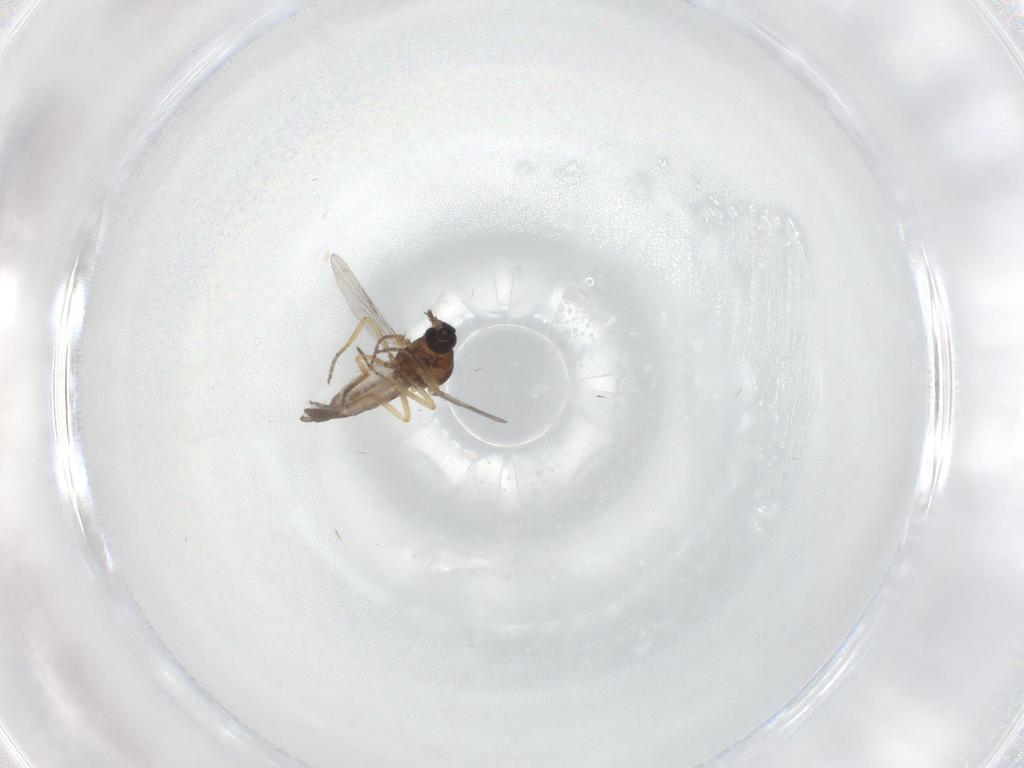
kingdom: Animalia
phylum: Arthropoda
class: Insecta
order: Diptera
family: Ceratopogonidae
